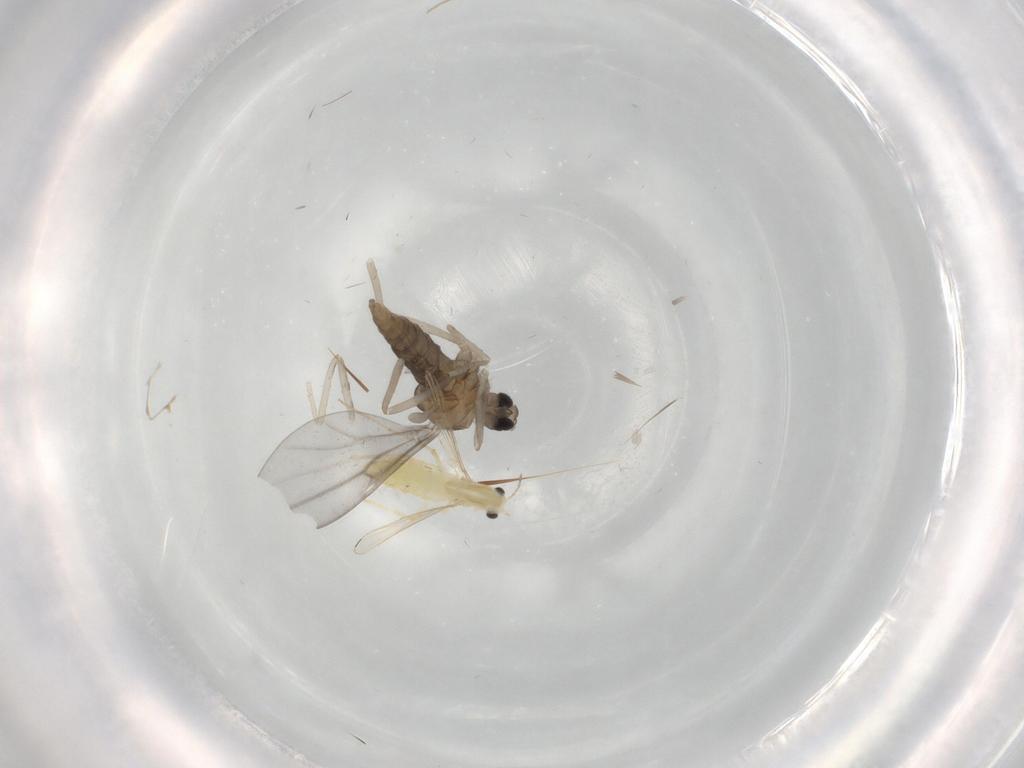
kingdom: Animalia
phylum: Arthropoda
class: Insecta
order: Diptera
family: Chironomidae
